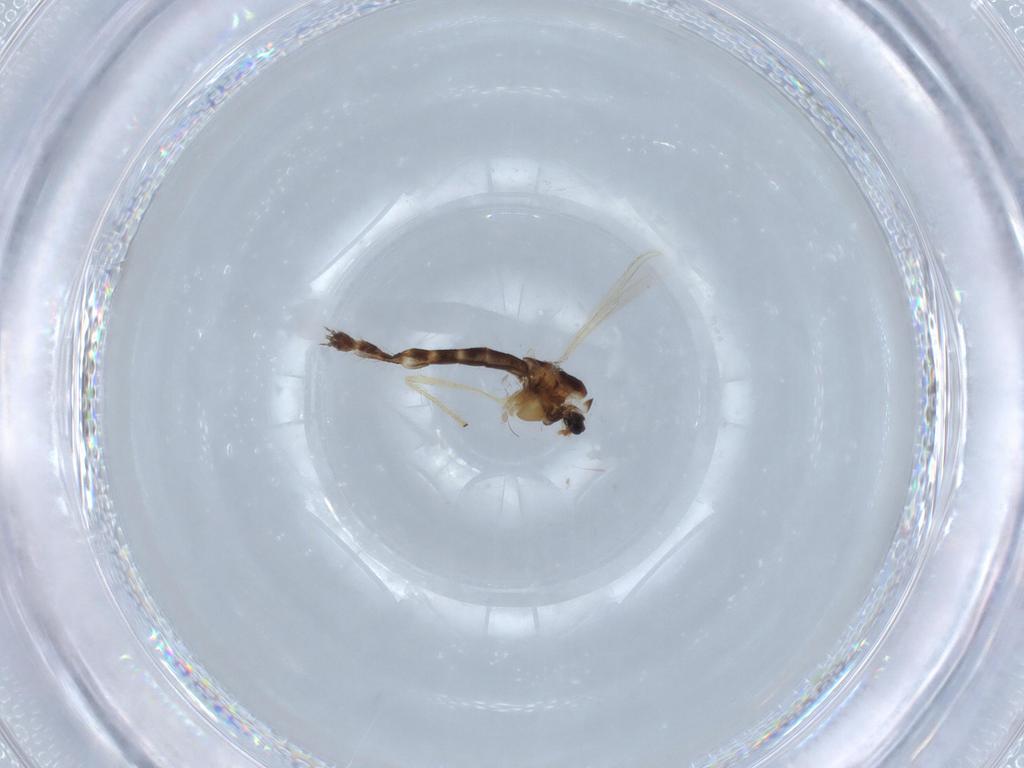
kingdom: Animalia
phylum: Arthropoda
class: Insecta
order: Diptera
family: Chironomidae
